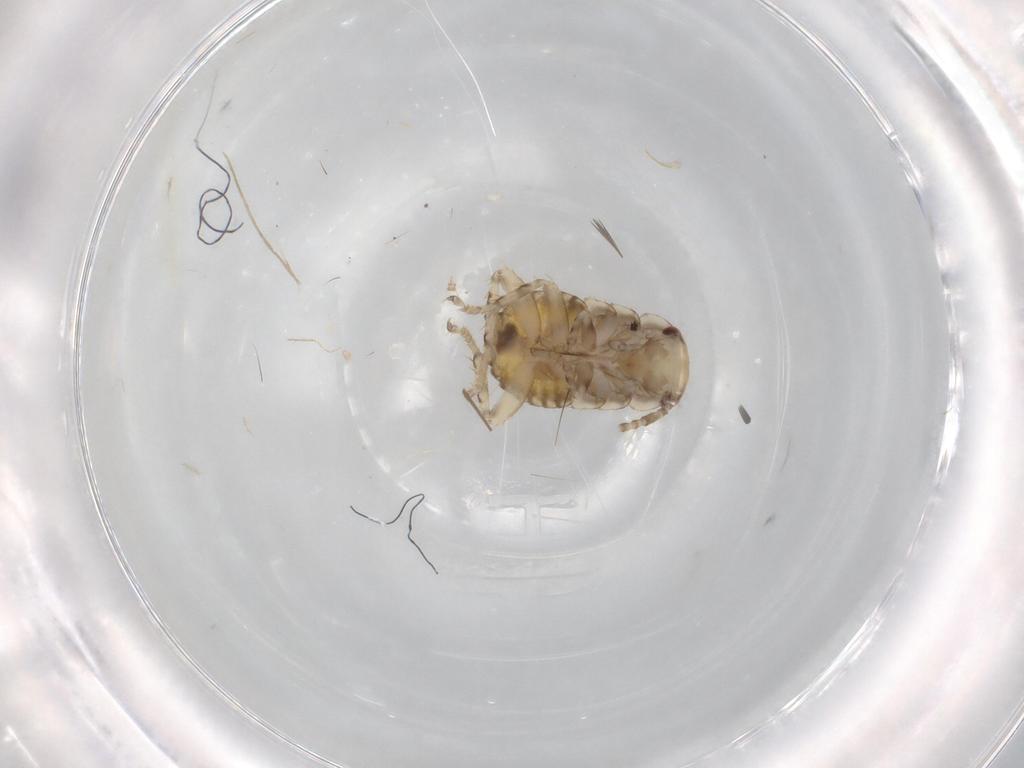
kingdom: Animalia
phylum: Arthropoda
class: Insecta
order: Blattodea
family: Ectobiidae
